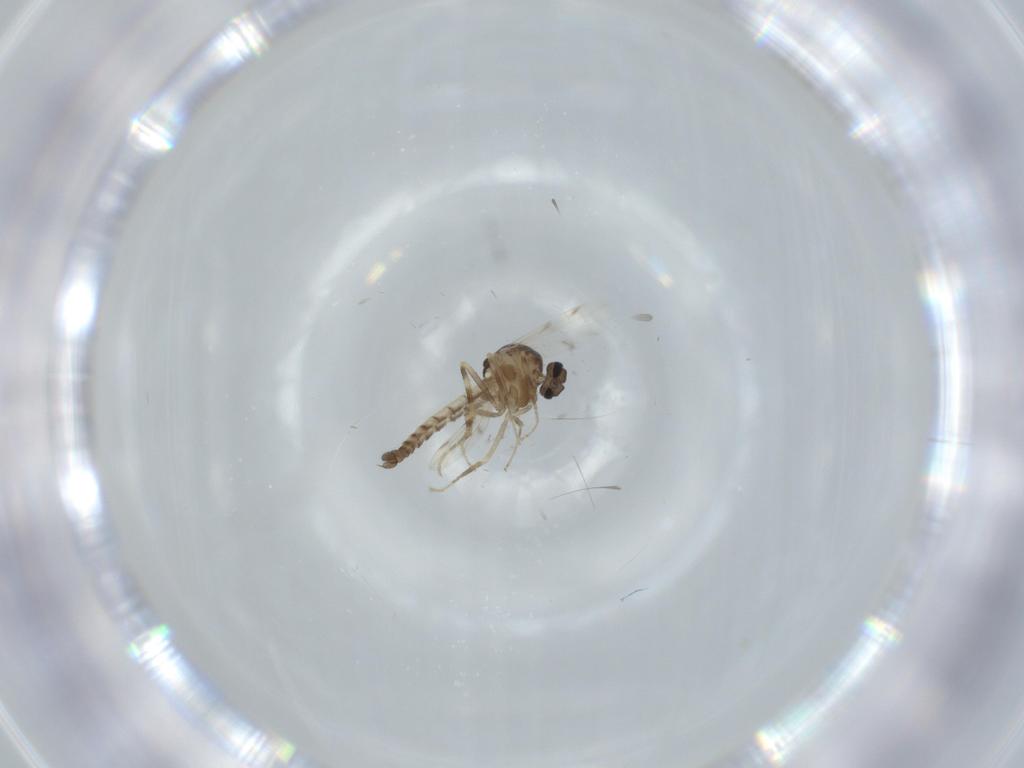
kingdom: Animalia
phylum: Arthropoda
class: Insecta
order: Diptera
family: Ceratopogonidae
